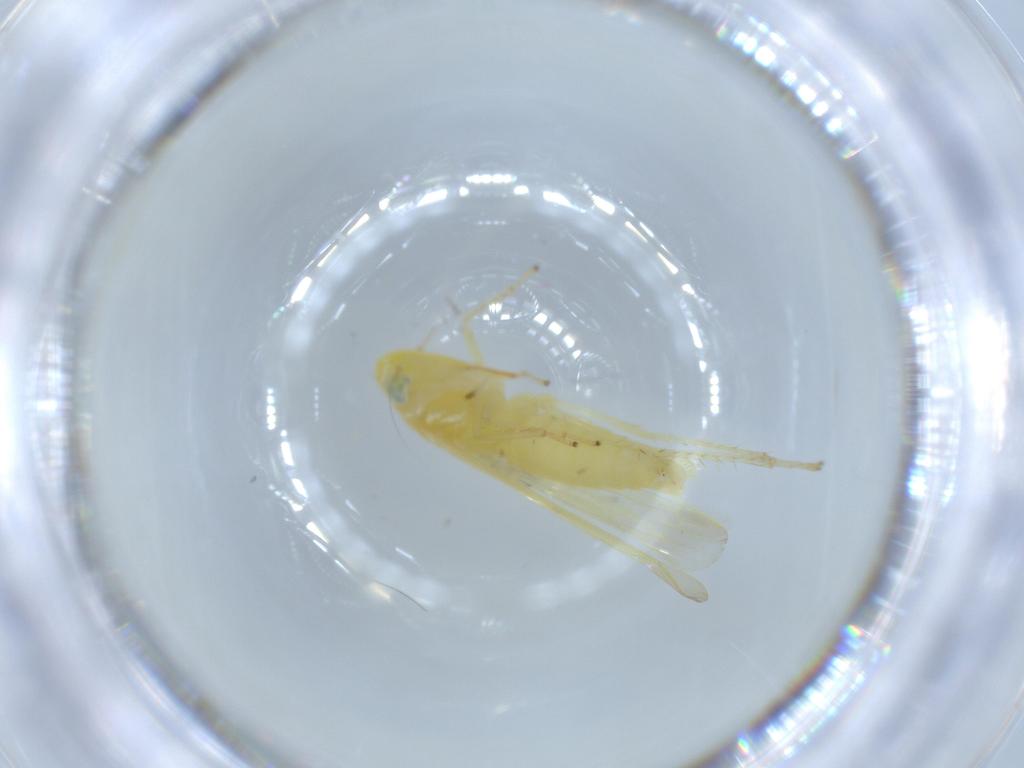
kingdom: Animalia
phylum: Arthropoda
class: Insecta
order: Hemiptera
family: Cicadellidae
